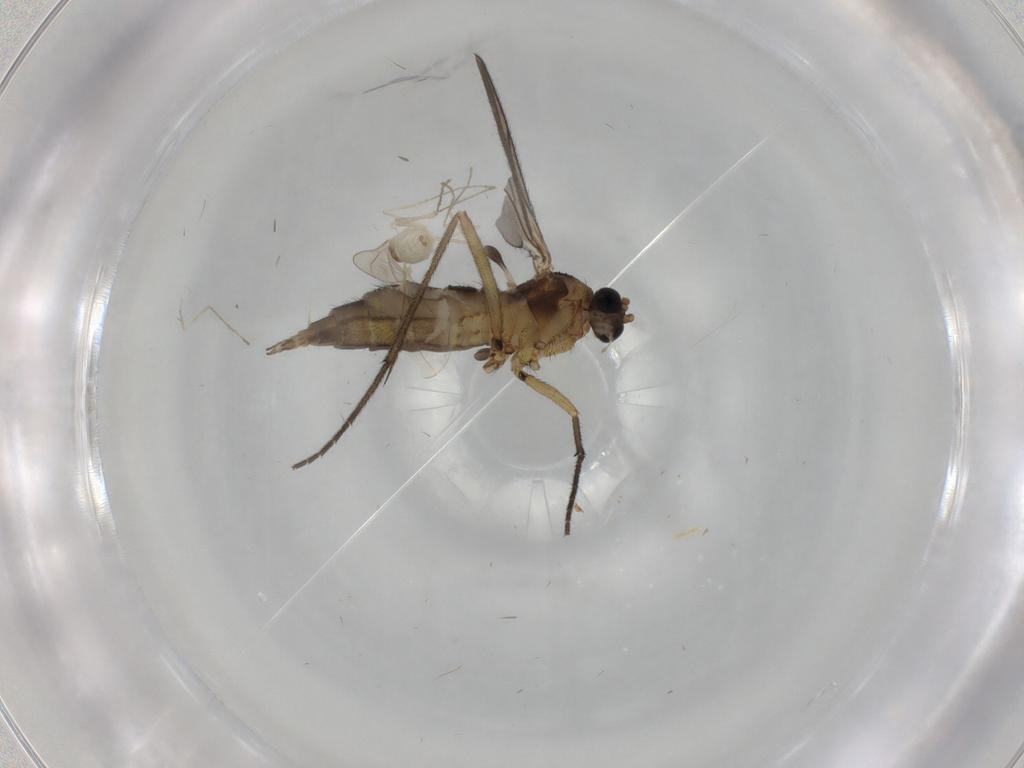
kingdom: Animalia
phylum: Arthropoda
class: Insecta
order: Diptera
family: Sciaridae
